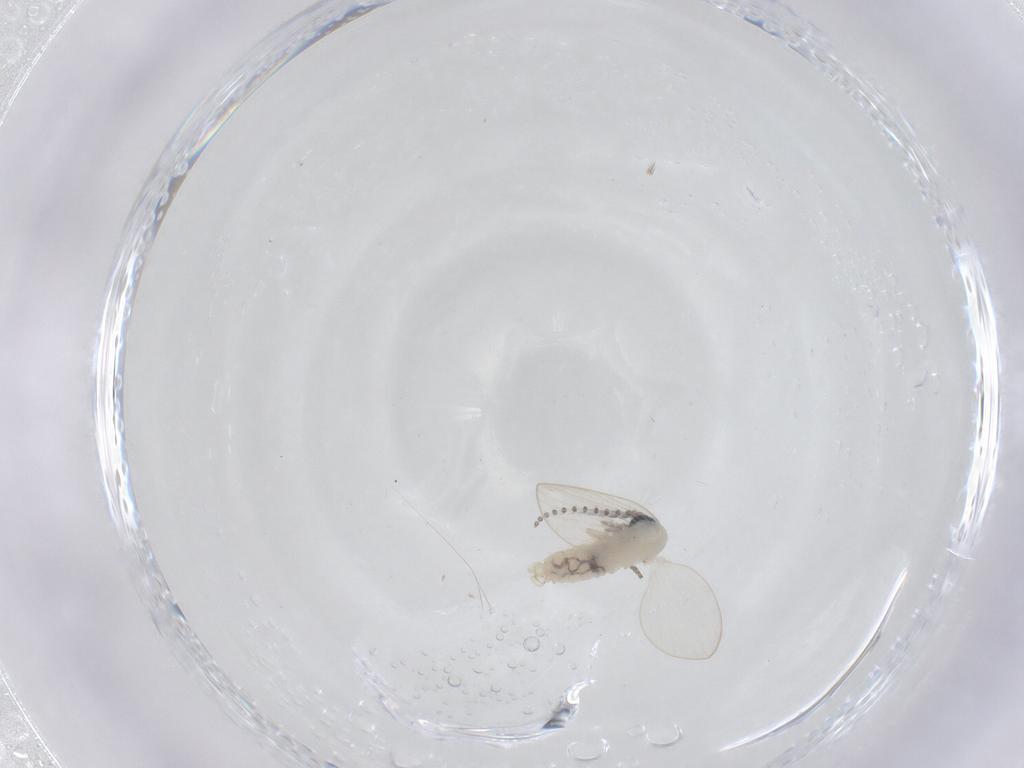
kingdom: Animalia
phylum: Arthropoda
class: Insecta
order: Diptera
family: Psychodidae
